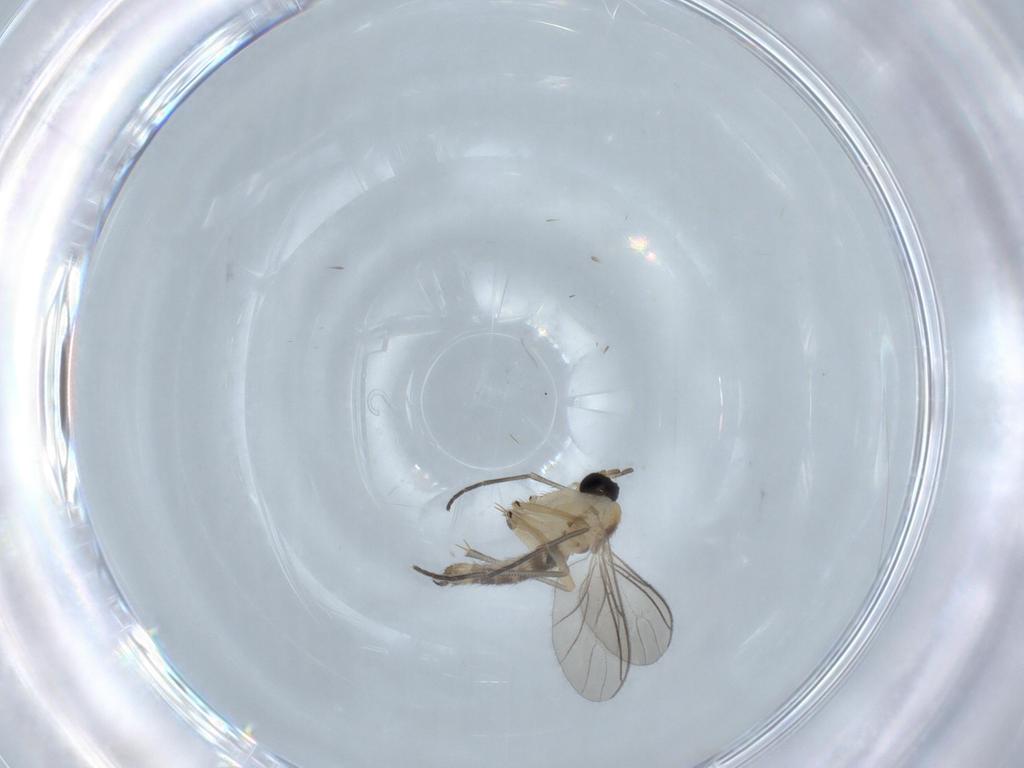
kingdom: Animalia
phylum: Arthropoda
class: Insecta
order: Diptera
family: Sciaridae
